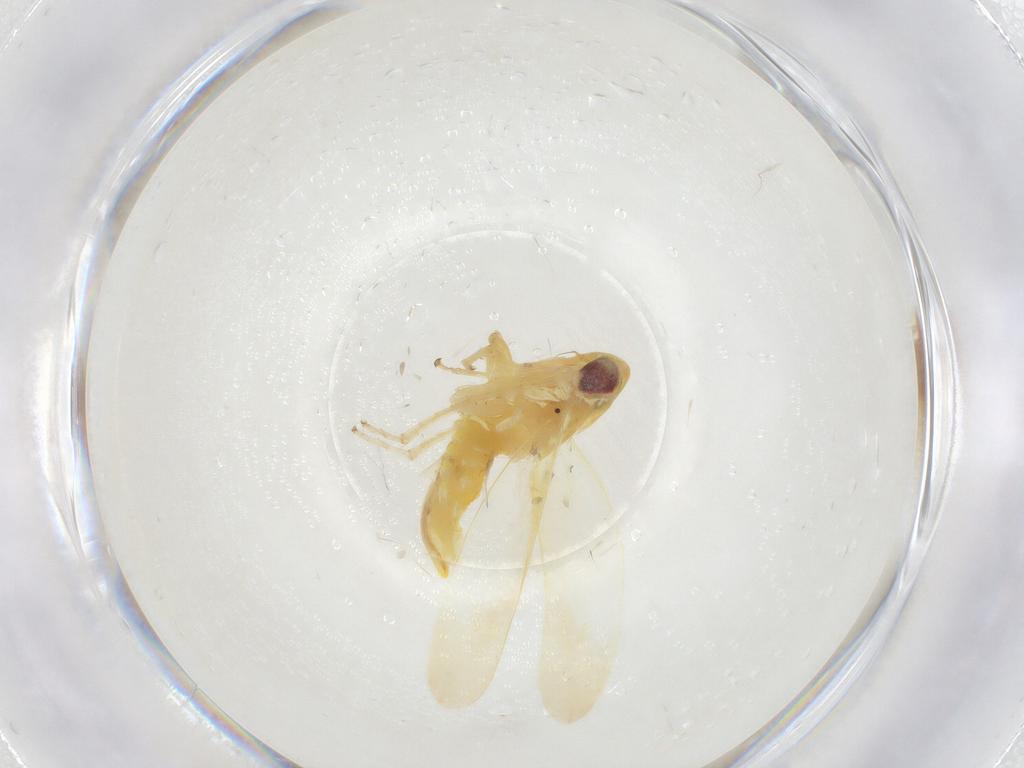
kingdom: Animalia
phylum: Arthropoda
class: Insecta
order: Hemiptera
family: Cicadellidae
